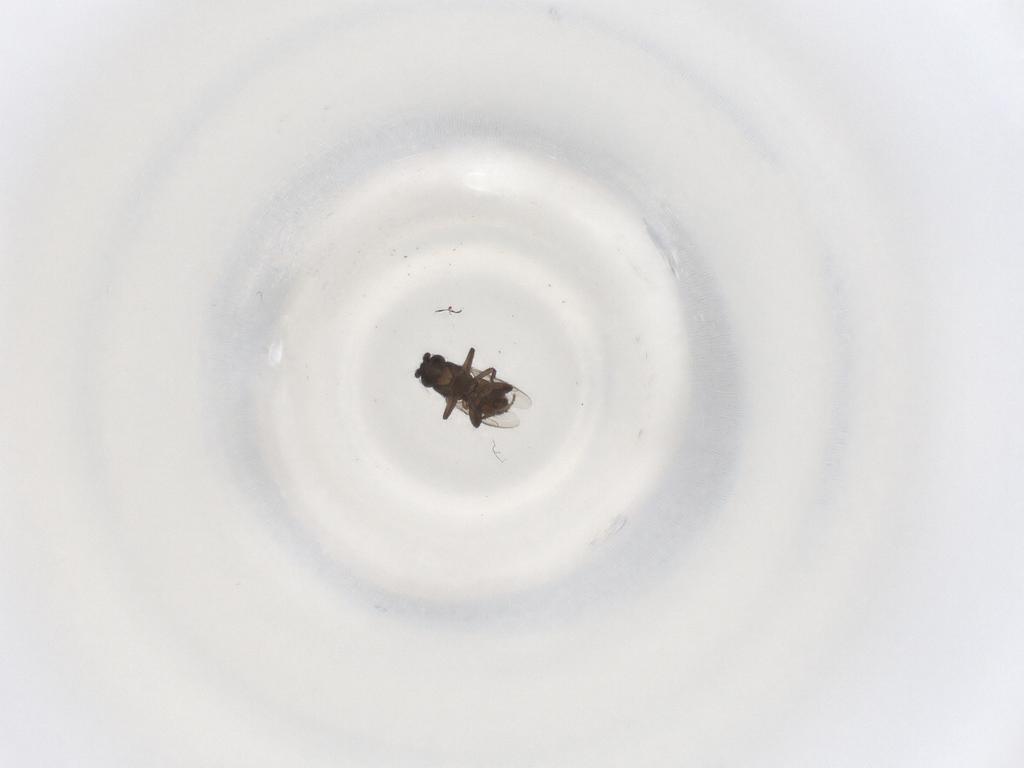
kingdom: Animalia
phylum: Arthropoda
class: Insecta
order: Diptera
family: Sphaeroceridae
